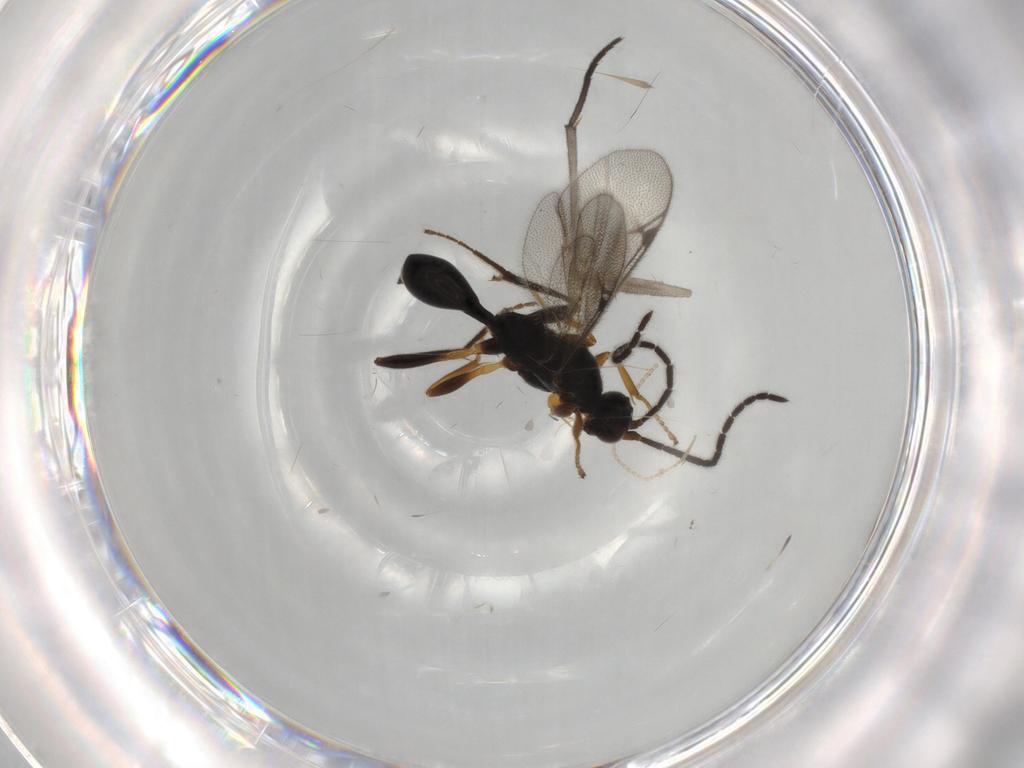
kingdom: Animalia
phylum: Arthropoda
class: Insecta
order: Hymenoptera
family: Proctotrupidae
